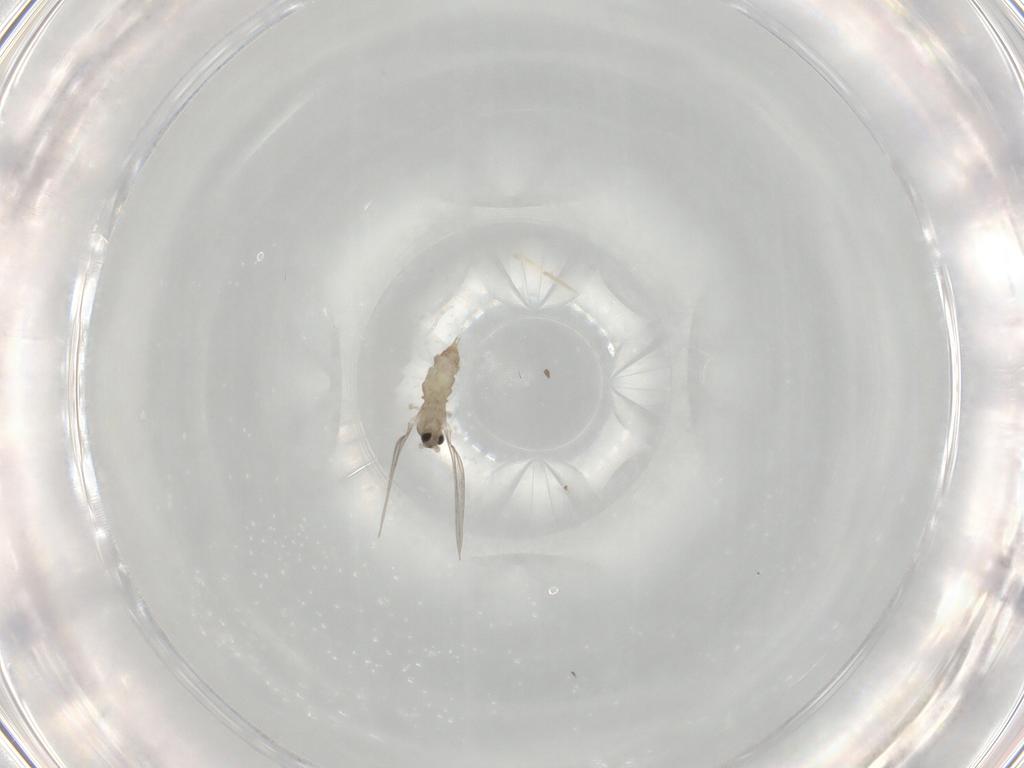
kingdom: Animalia
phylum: Arthropoda
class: Insecta
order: Diptera
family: Cecidomyiidae
